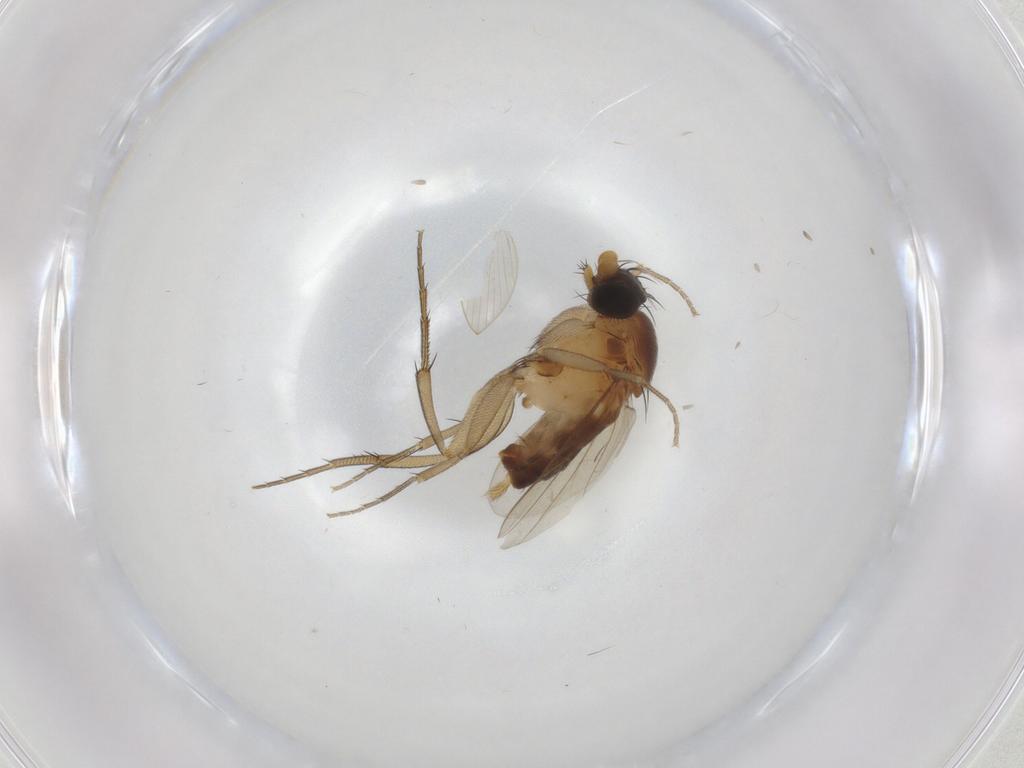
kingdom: Animalia
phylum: Arthropoda
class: Insecta
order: Diptera
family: Phoridae
